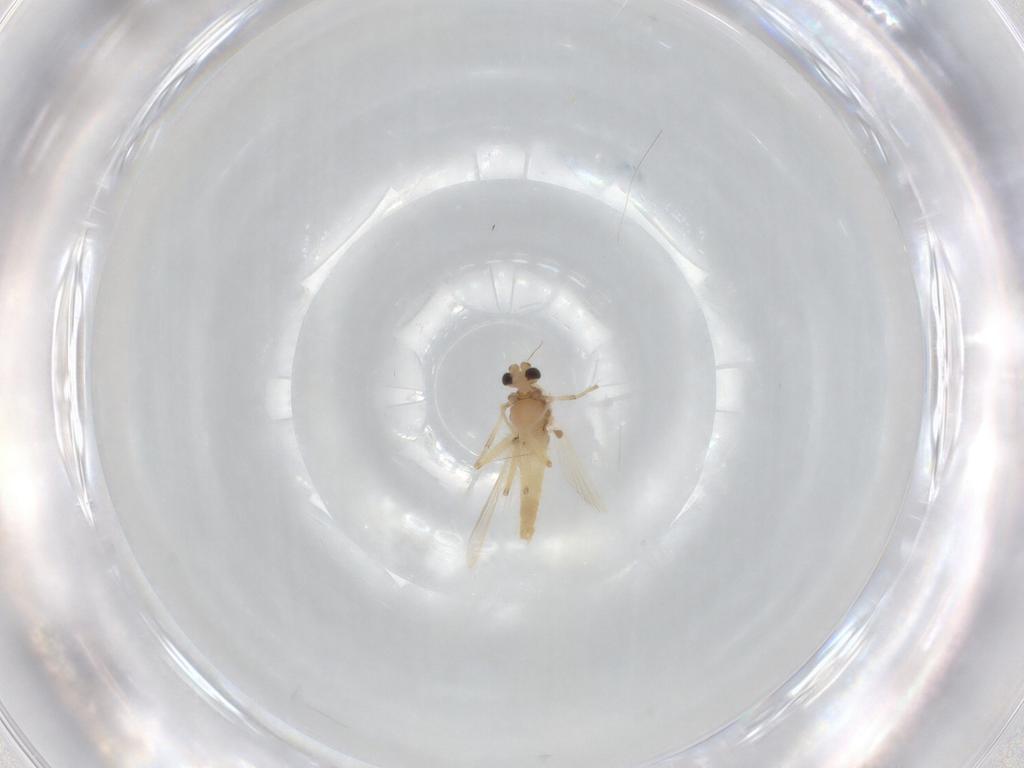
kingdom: Animalia
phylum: Arthropoda
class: Insecta
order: Diptera
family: Chironomidae
